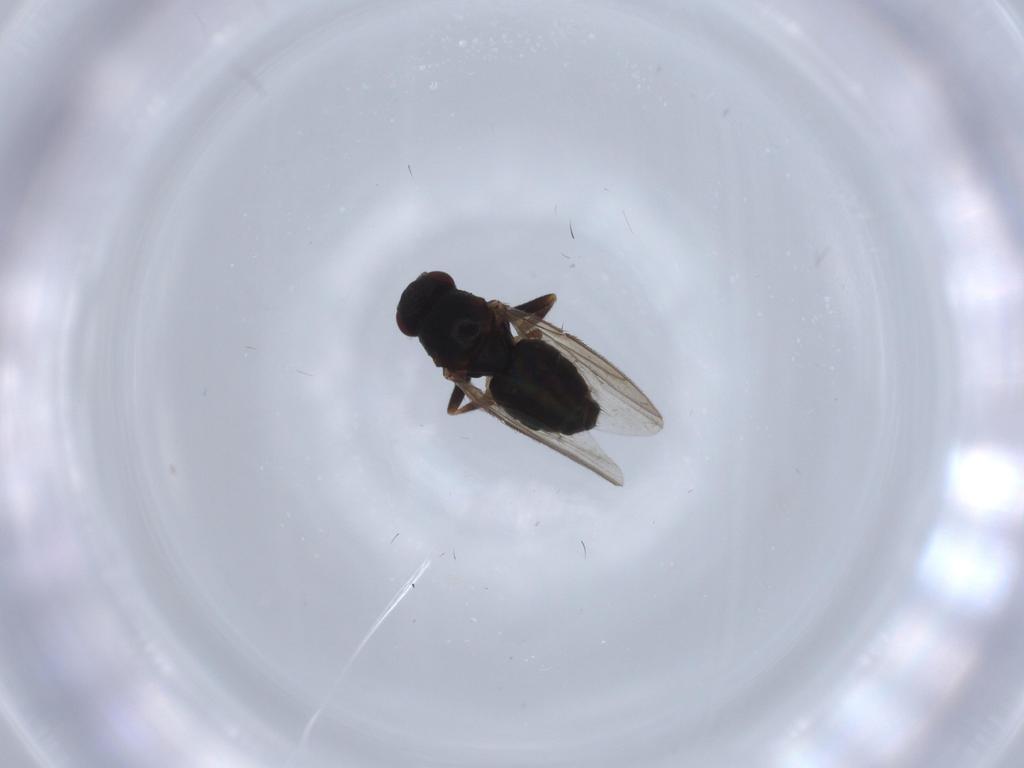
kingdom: Animalia
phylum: Arthropoda
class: Insecta
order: Diptera
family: Sphaeroceridae
